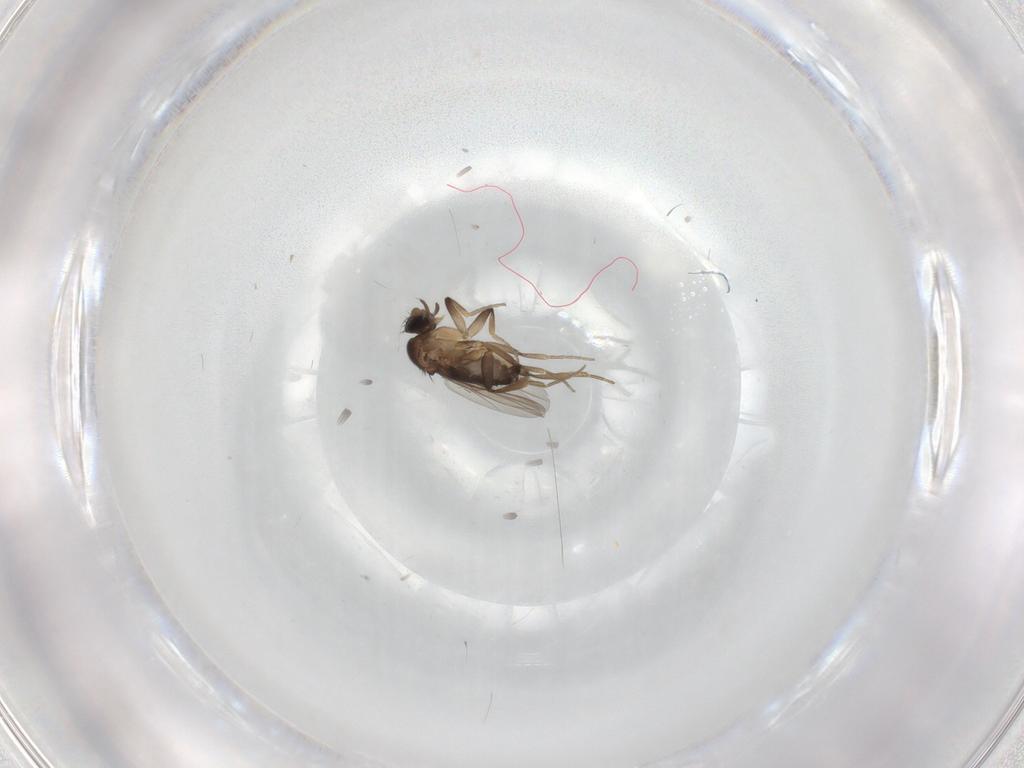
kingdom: Animalia
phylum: Arthropoda
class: Insecta
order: Diptera
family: Phoridae
